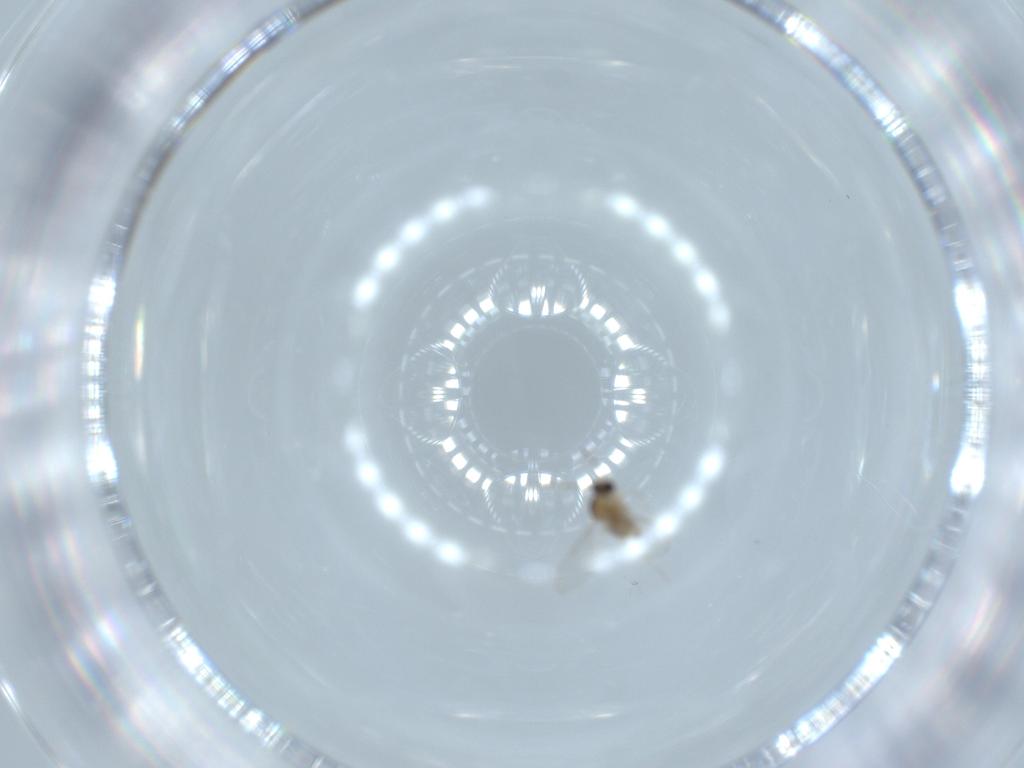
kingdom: Animalia
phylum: Arthropoda
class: Insecta
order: Diptera
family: Cecidomyiidae
